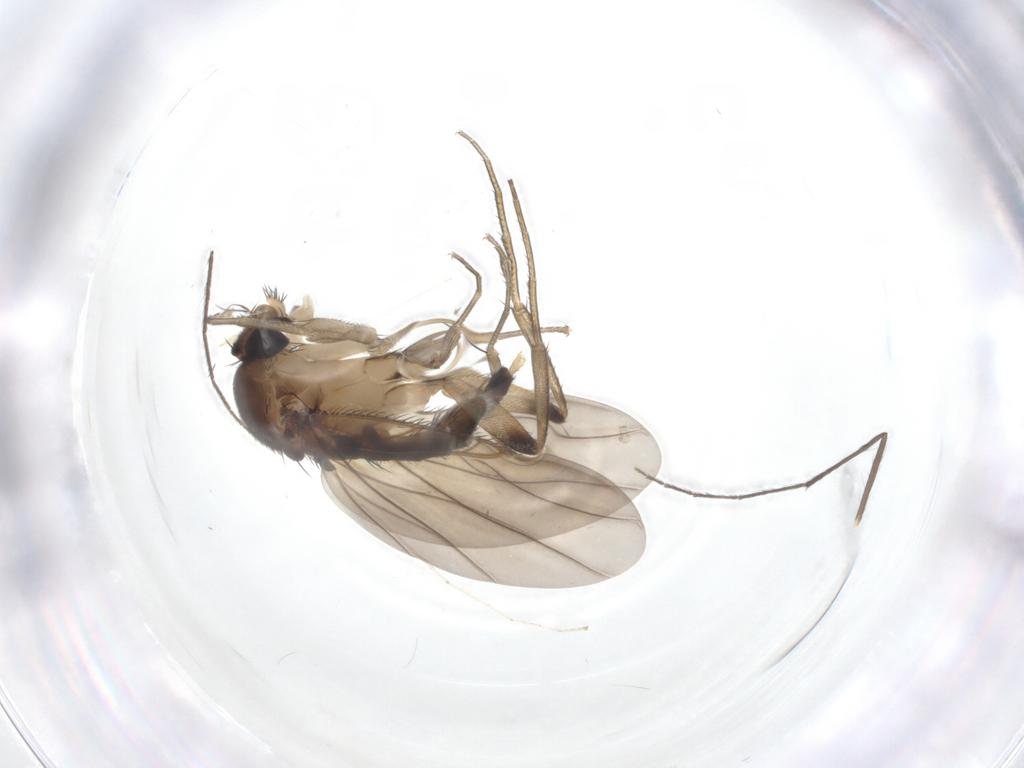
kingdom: Animalia
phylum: Arthropoda
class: Insecta
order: Diptera
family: Phoridae
